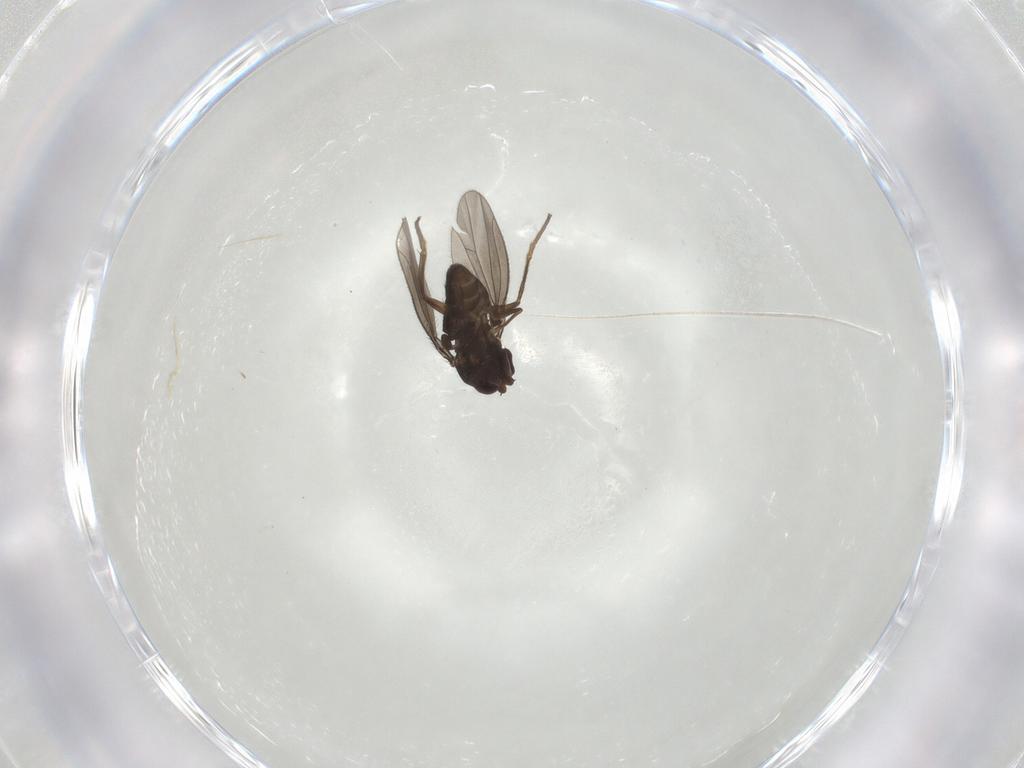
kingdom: Animalia
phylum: Arthropoda
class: Insecta
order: Diptera
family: Dolichopodidae
